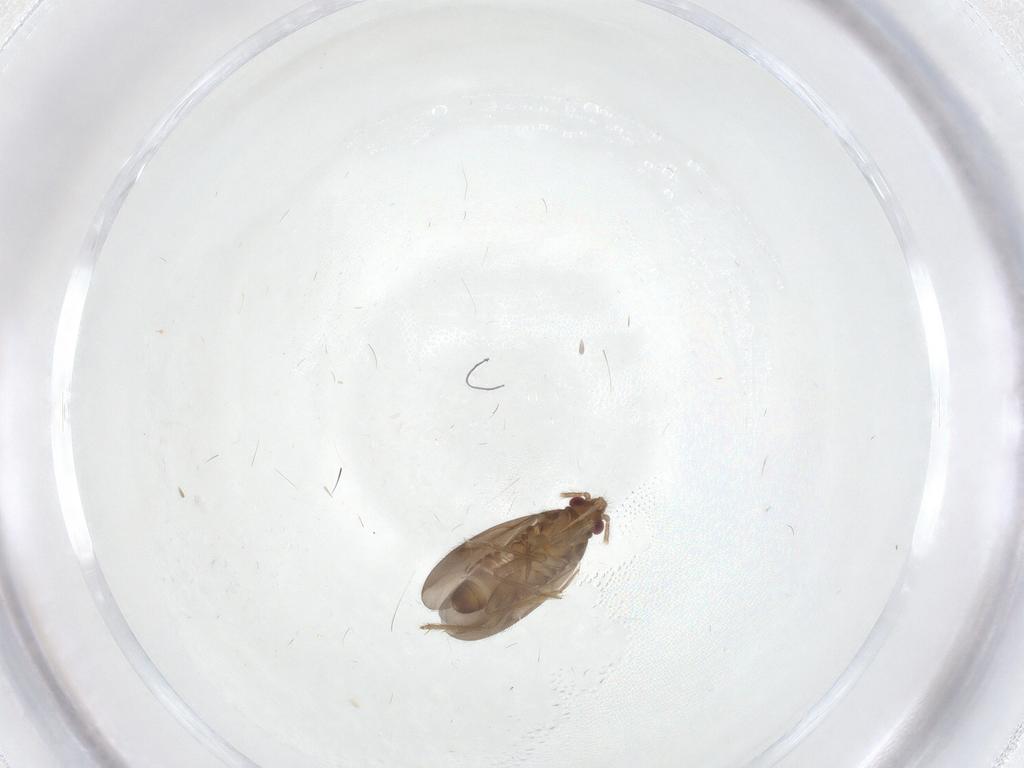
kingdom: Animalia
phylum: Arthropoda
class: Insecta
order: Hemiptera
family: Ceratocombidae
